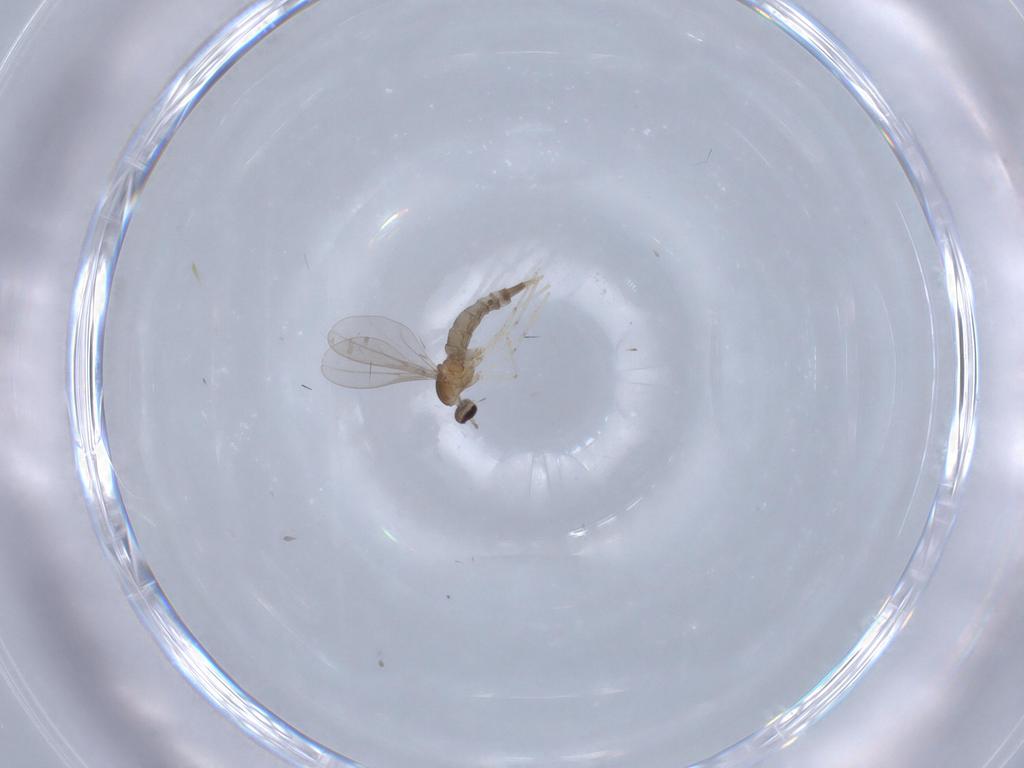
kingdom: Animalia
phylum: Arthropoda
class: Insecta
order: Diptera
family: Cecidomyiidae
